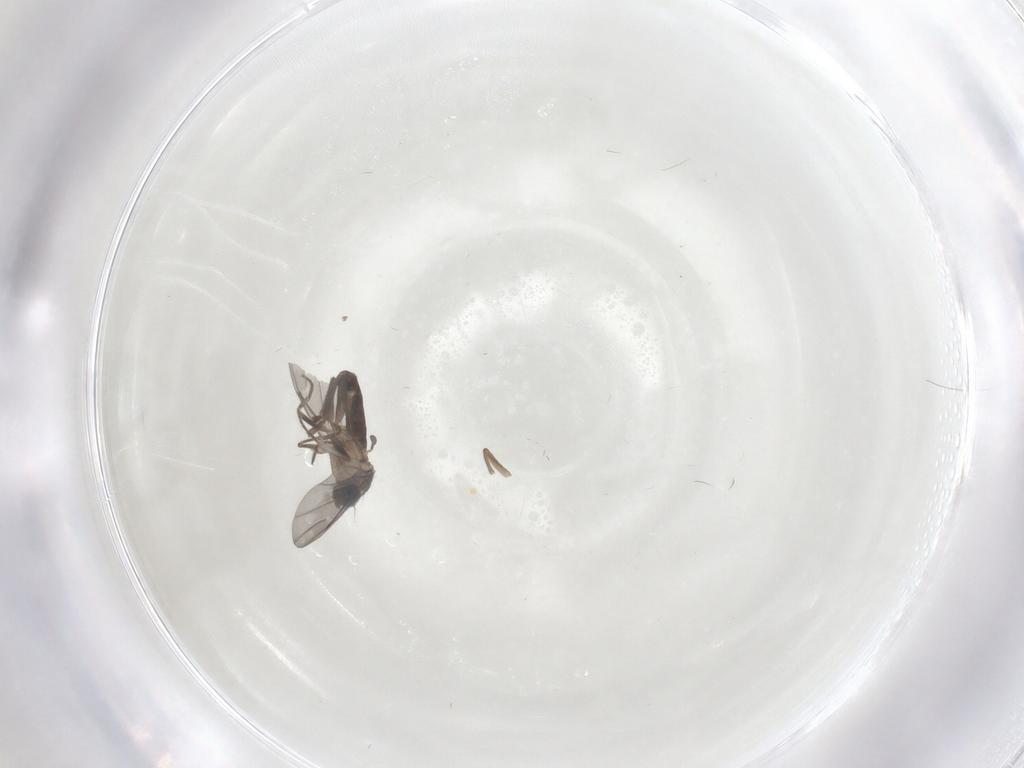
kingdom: Animalia
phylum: Arthropoda
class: Insecta
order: Diptera
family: Phoridae
